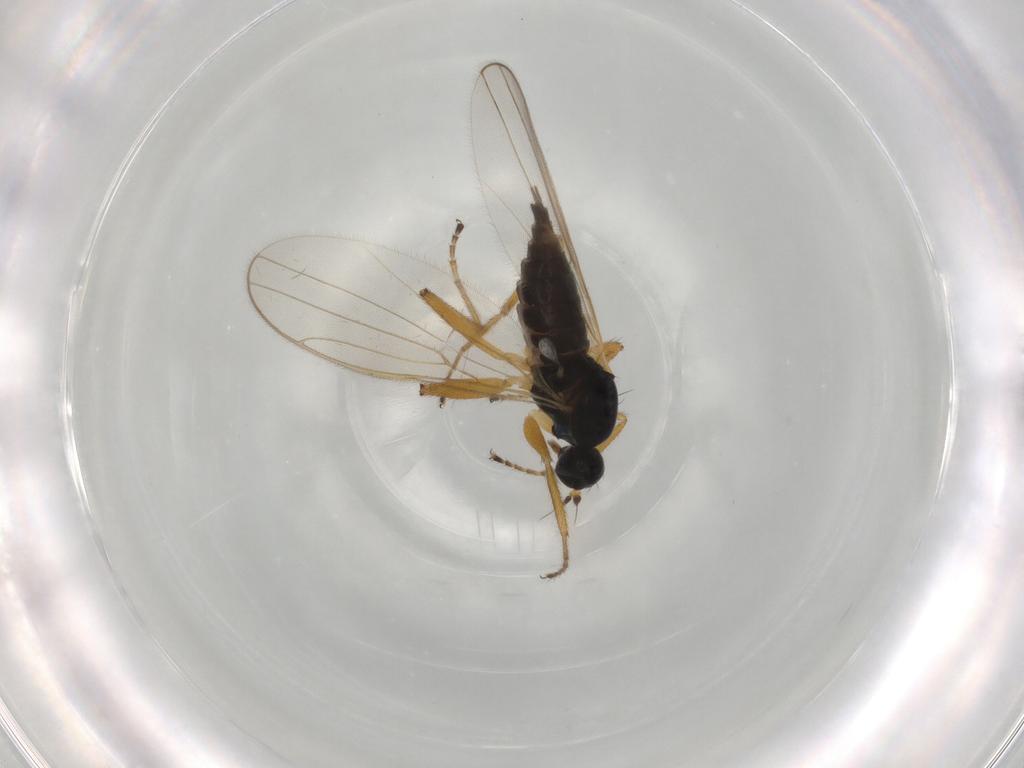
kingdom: Animalia
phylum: Arthropoda
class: Insecta
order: Diptera
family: Hybotidae
